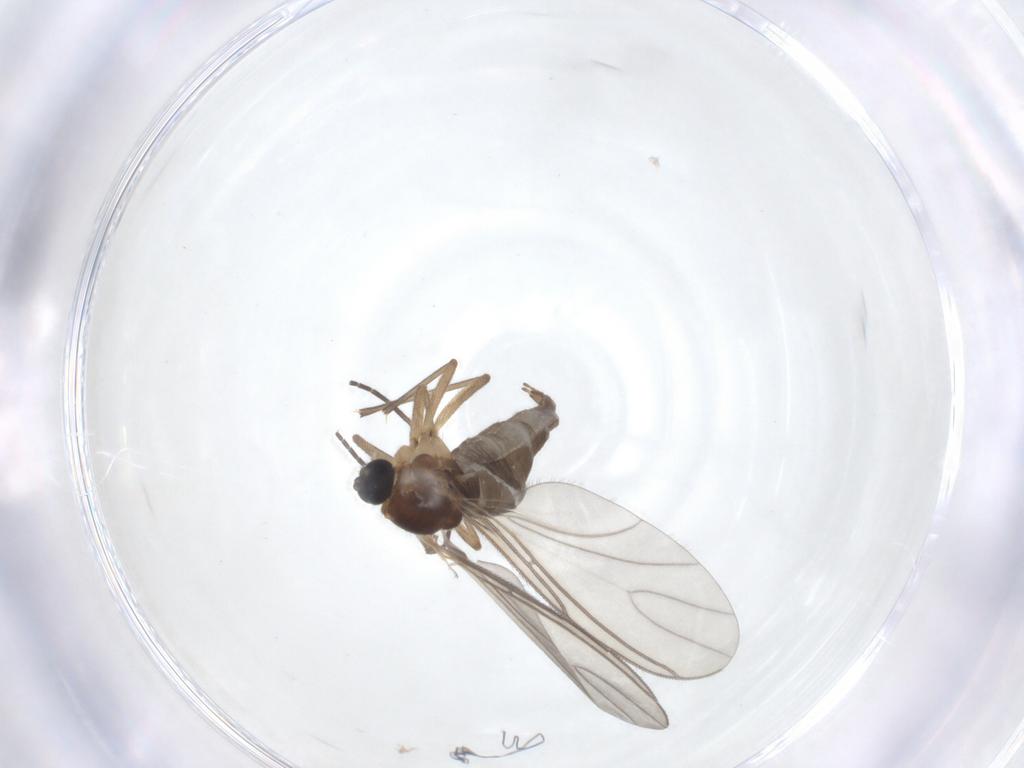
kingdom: Animalia
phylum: Arthropoda
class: Insecta
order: Diptera
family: Sciaridae
